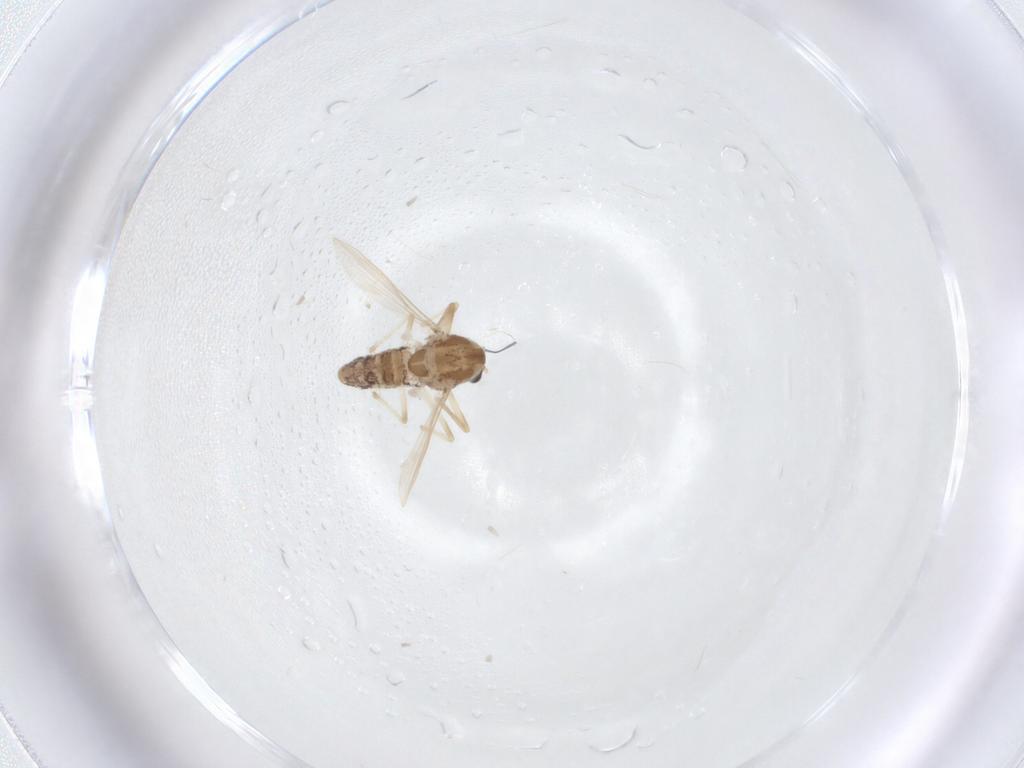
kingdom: Animalia
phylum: Arthropoda
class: Insecta
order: Diptera
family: Chironomidae
